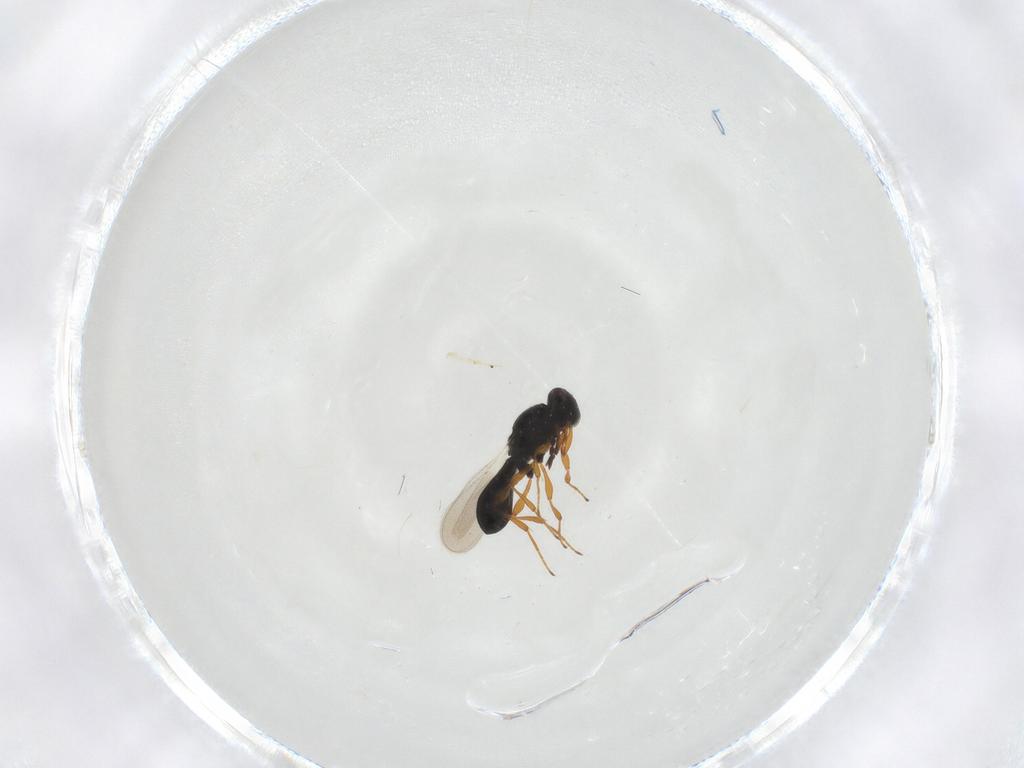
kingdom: Animalia
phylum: Arthropoda
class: Insecta
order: Hymenoptera
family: Platygastridae
